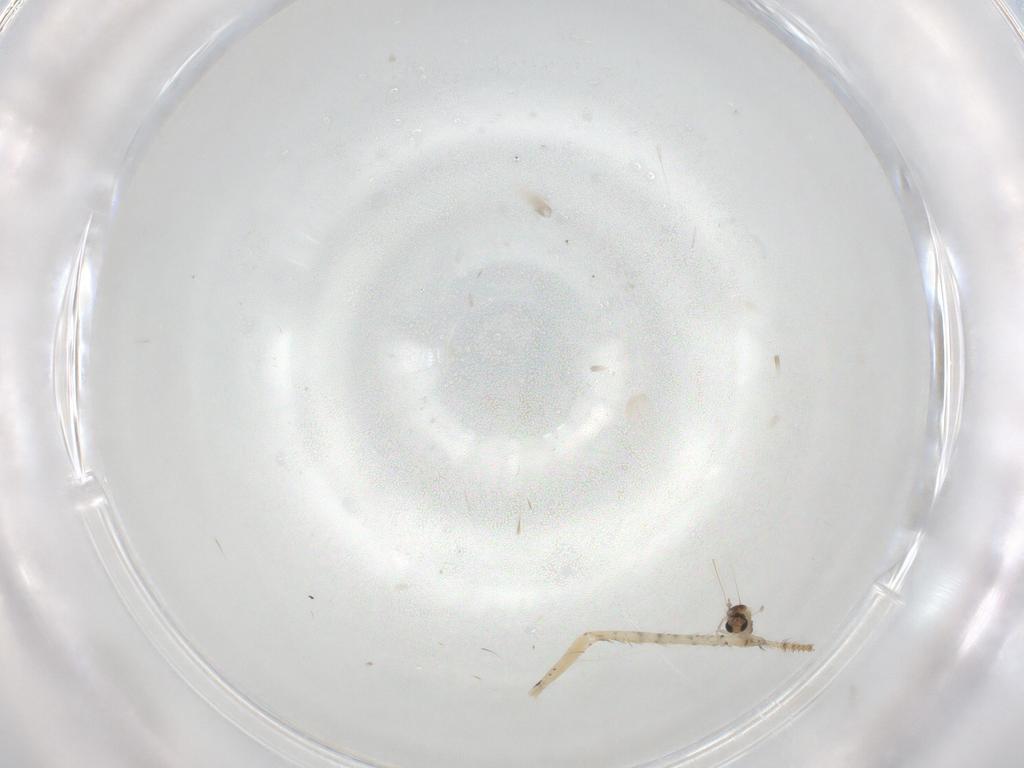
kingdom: Animalia
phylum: Arthropoda
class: Insecta
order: Diptera
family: Cecidomyiidae
